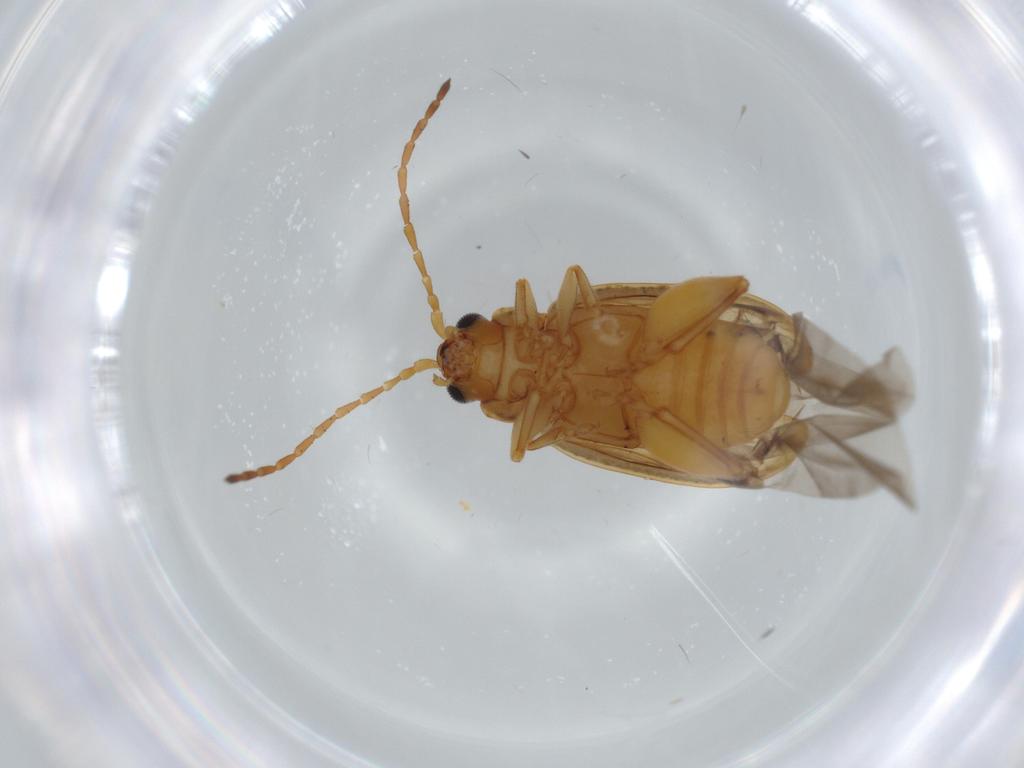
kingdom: Animalia
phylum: Arthropoda
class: Insecta
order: Coleoptera
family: Chrysomelidae
